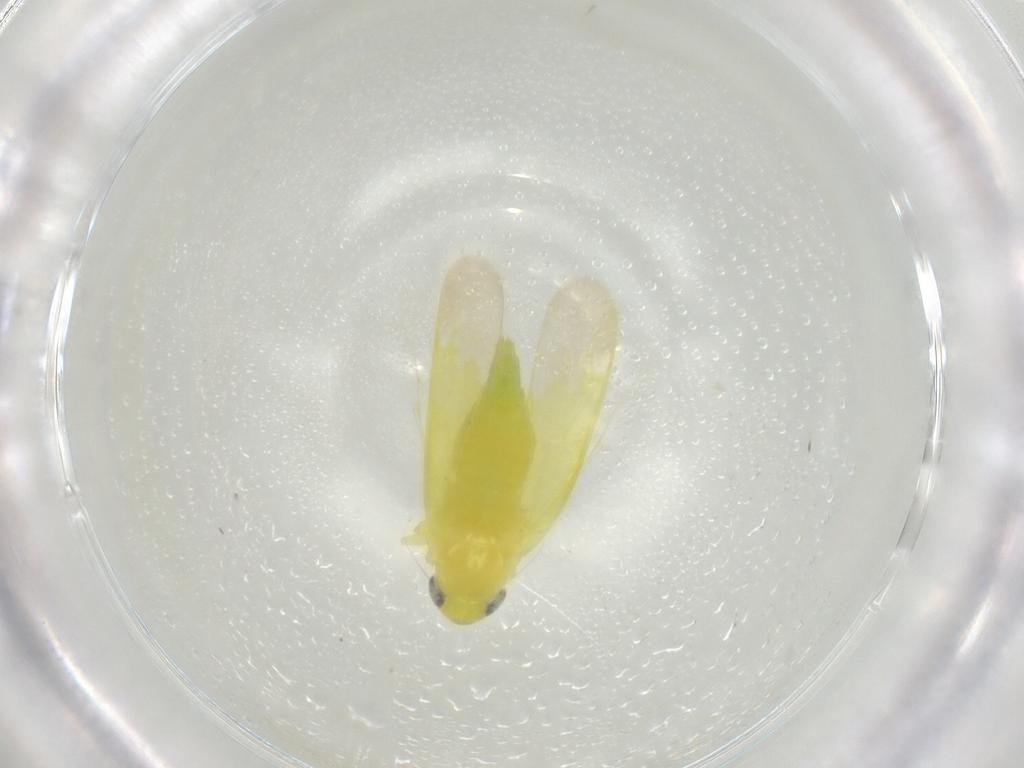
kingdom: Animalia
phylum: Arthropoda
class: Insecta
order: Hemiptera
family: Cicadellidae
